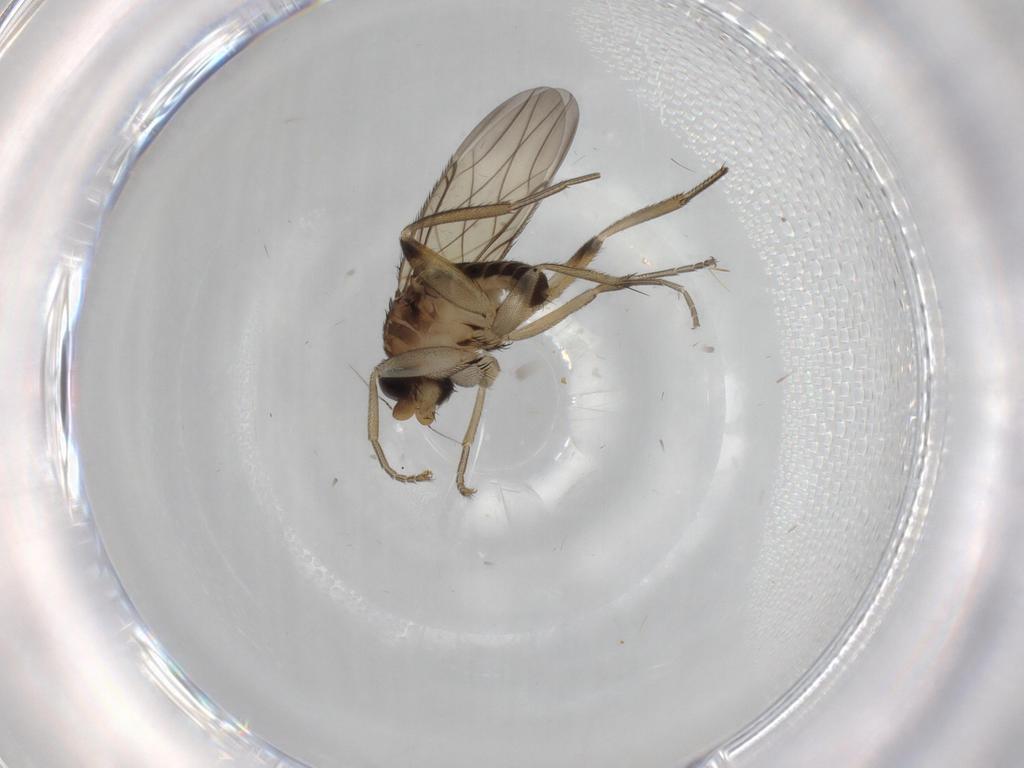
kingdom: Animalia
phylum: Arthropoda
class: Insecta
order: Diptera
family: Phoridae
